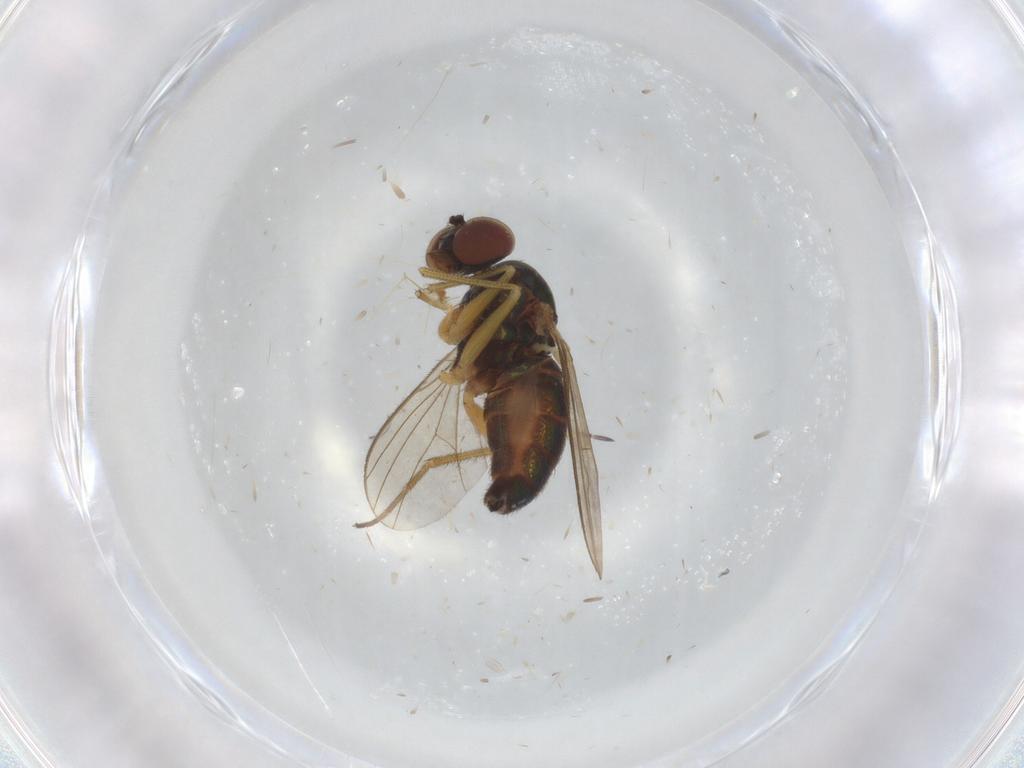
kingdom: Animalia
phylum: Arthropoda
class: Insecta
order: Diptera
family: Dolichopodidae
